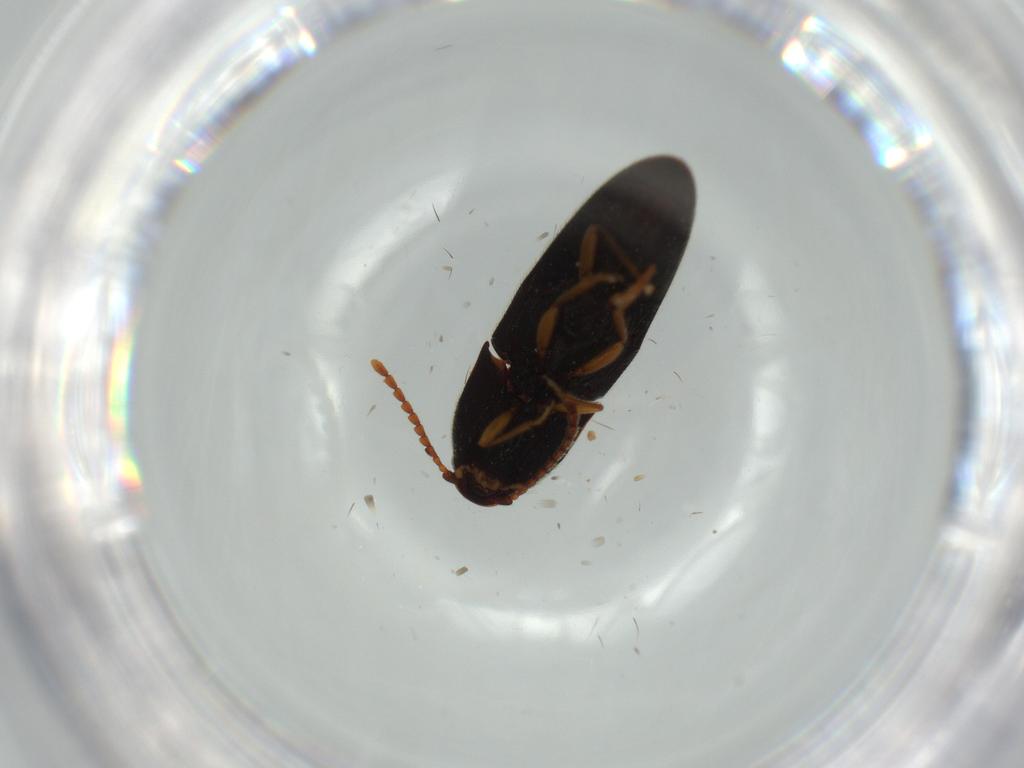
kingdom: Animalia
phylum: Arthropoda
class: Insecta
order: Coleoptera
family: Elateridae
